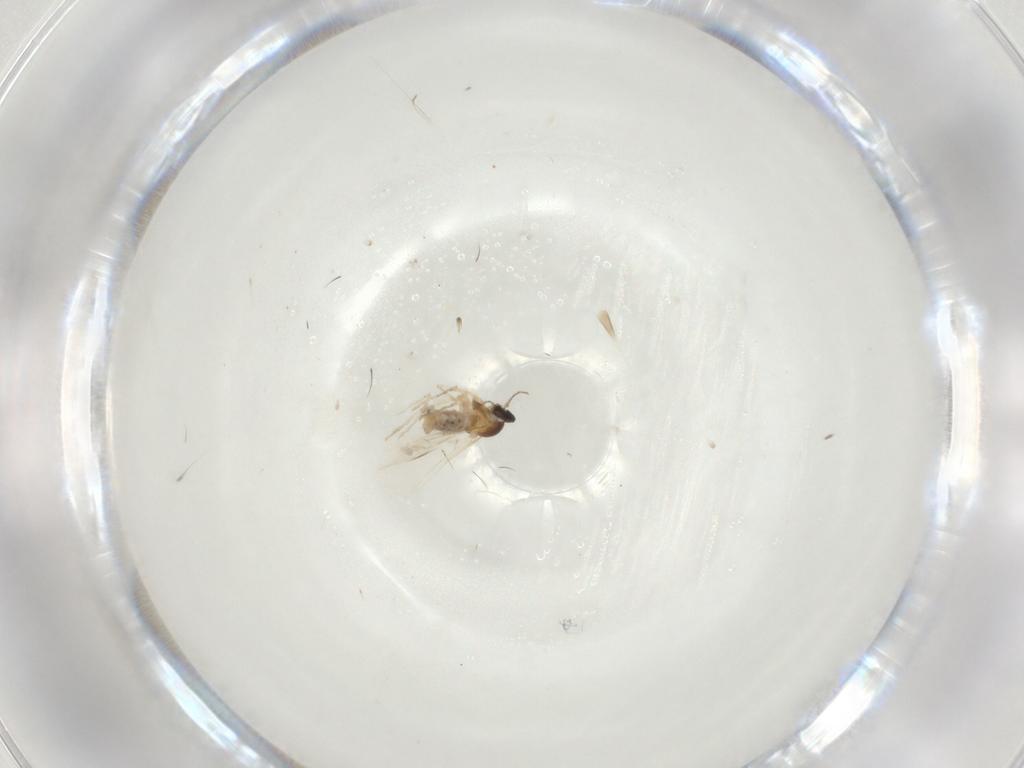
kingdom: Animalia
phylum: Arthropoda
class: Insecta
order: Diptera
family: Cecidomyiidae
